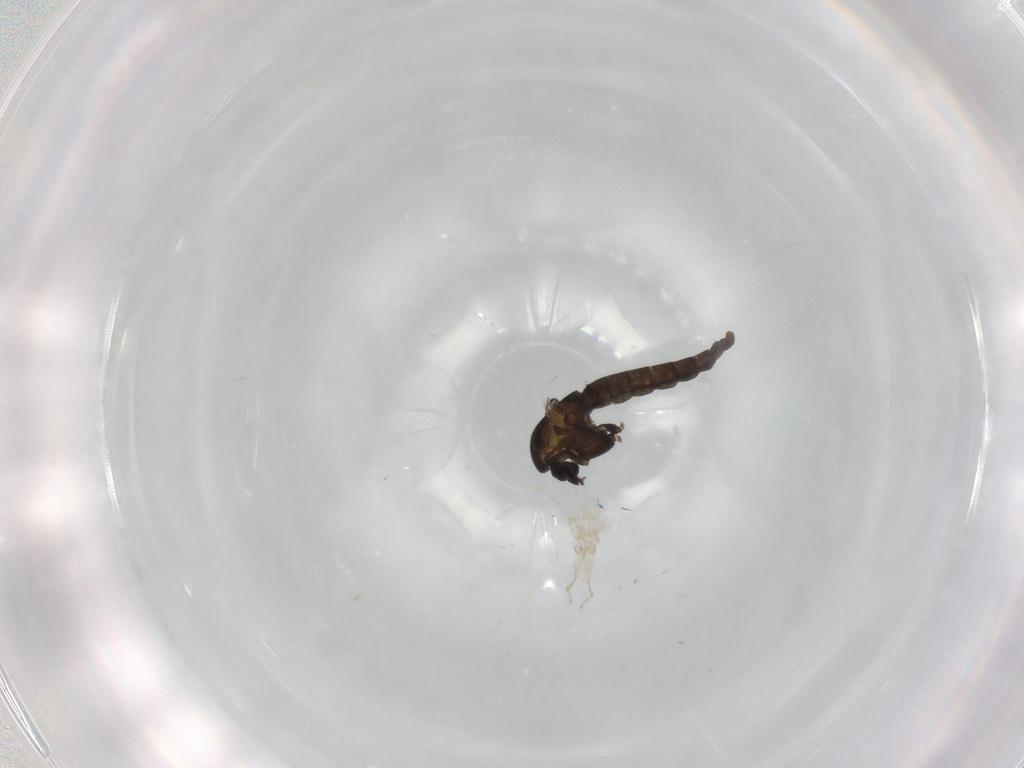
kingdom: Animalia
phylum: Arthropoda
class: Insecta
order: Diptera
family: Chironomidae
